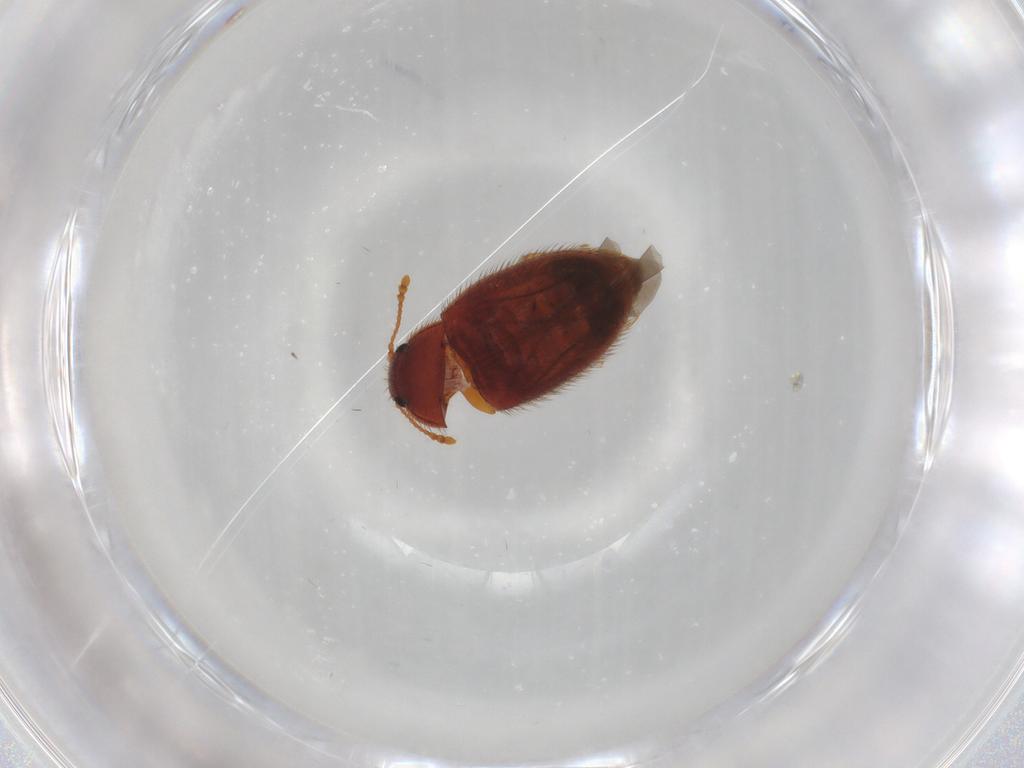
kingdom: Animalia
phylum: Arthropoda
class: Insecta
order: Coleoptera
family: Biphyllidae
